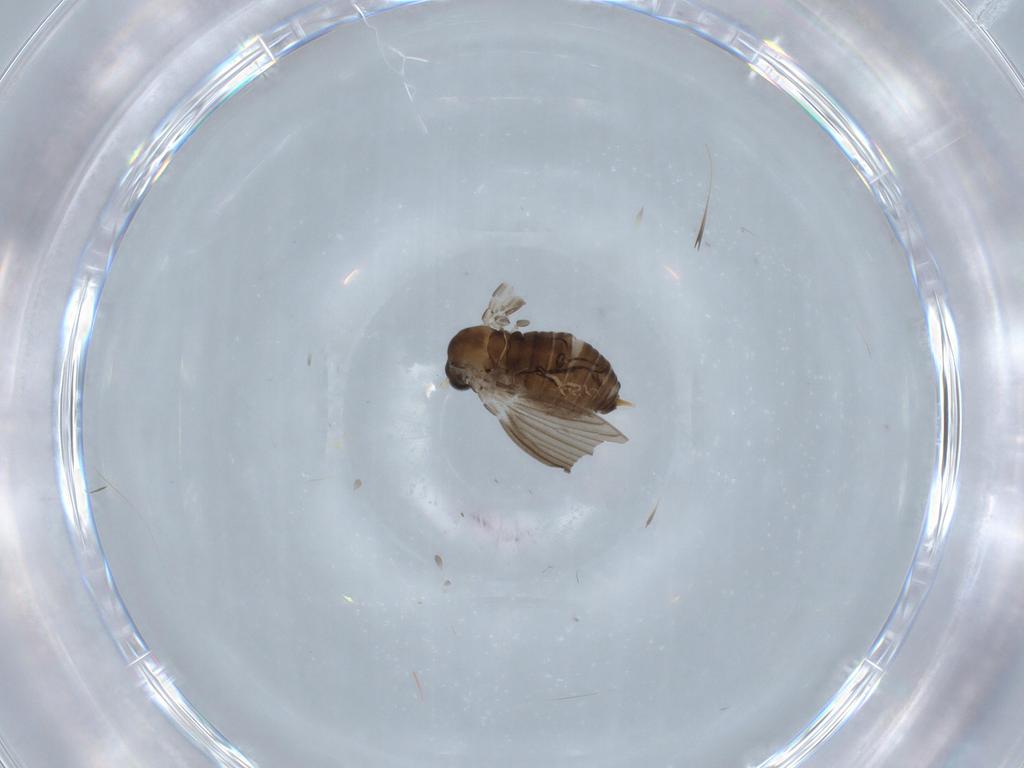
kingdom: Animalia
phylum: Arthropoda
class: Insecta
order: Diptera
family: Psychodidae
